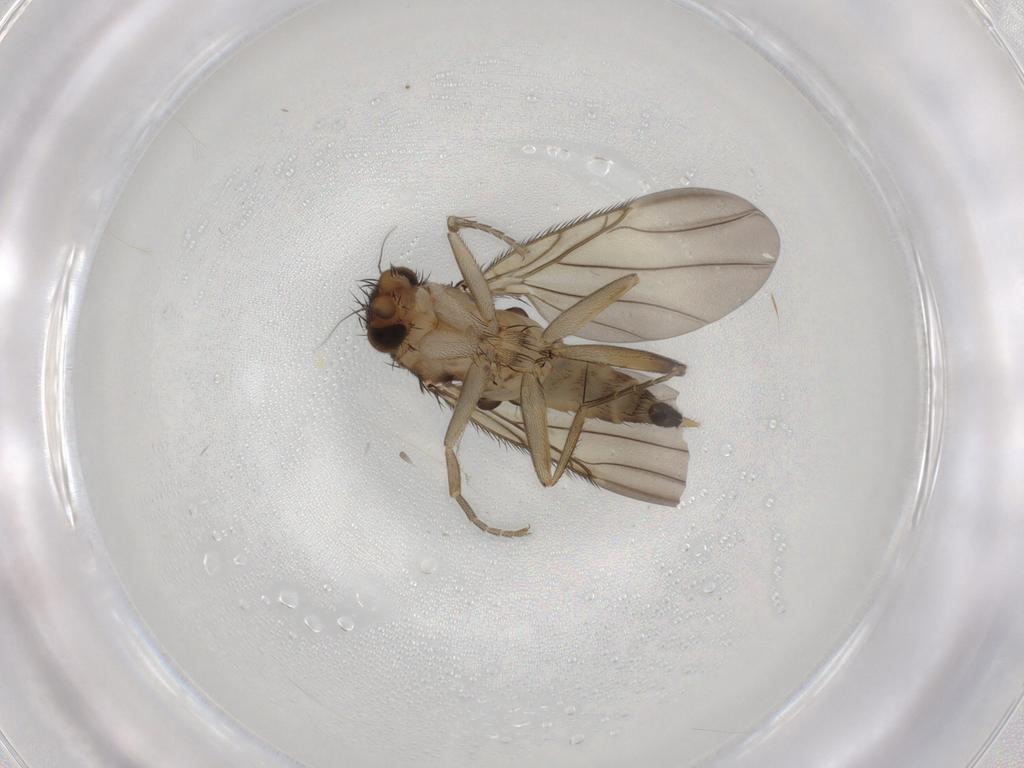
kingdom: Animalia
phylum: Arthropoda
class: Insecta
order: Diptera
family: Phoridae
